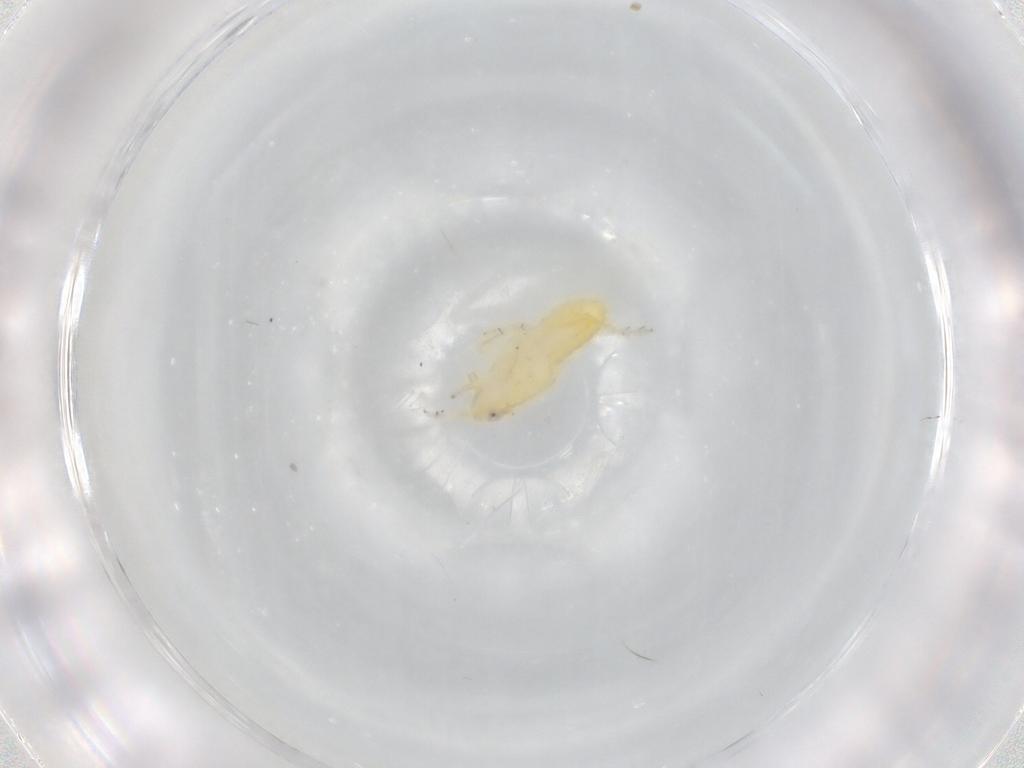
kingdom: Animalia
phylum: Arthropoda
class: Insecta
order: Hemiptera
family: Delphacidae
